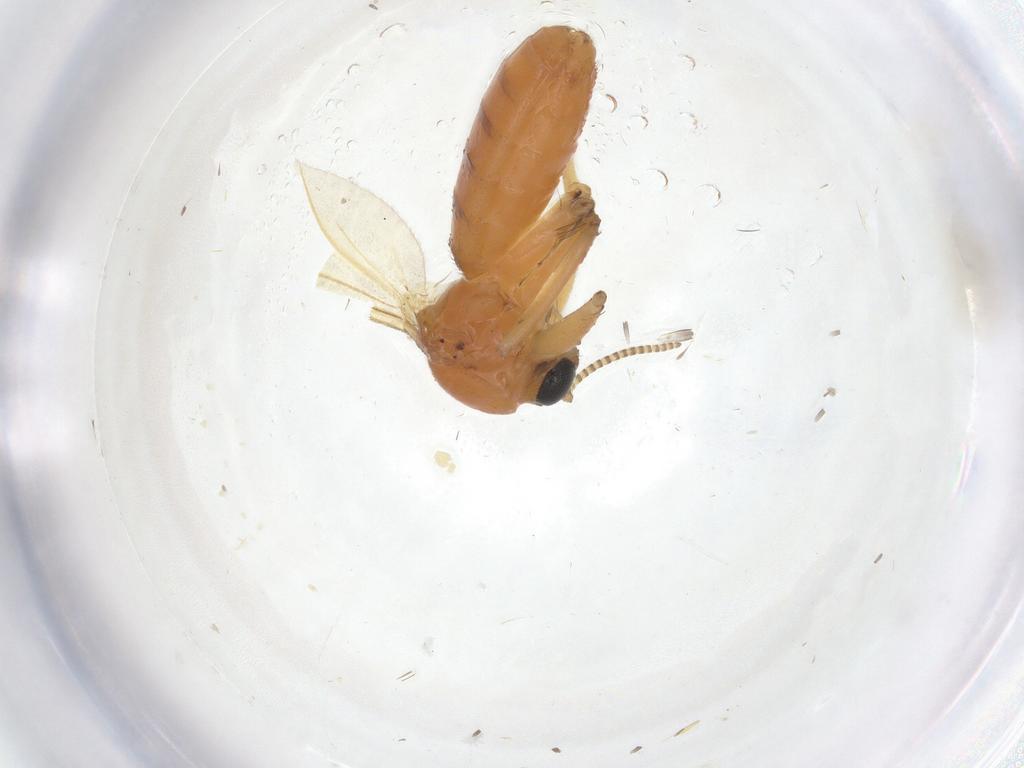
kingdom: Animalia
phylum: Arthropoda
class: Insecta
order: Diptera
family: Mycetophilidae
